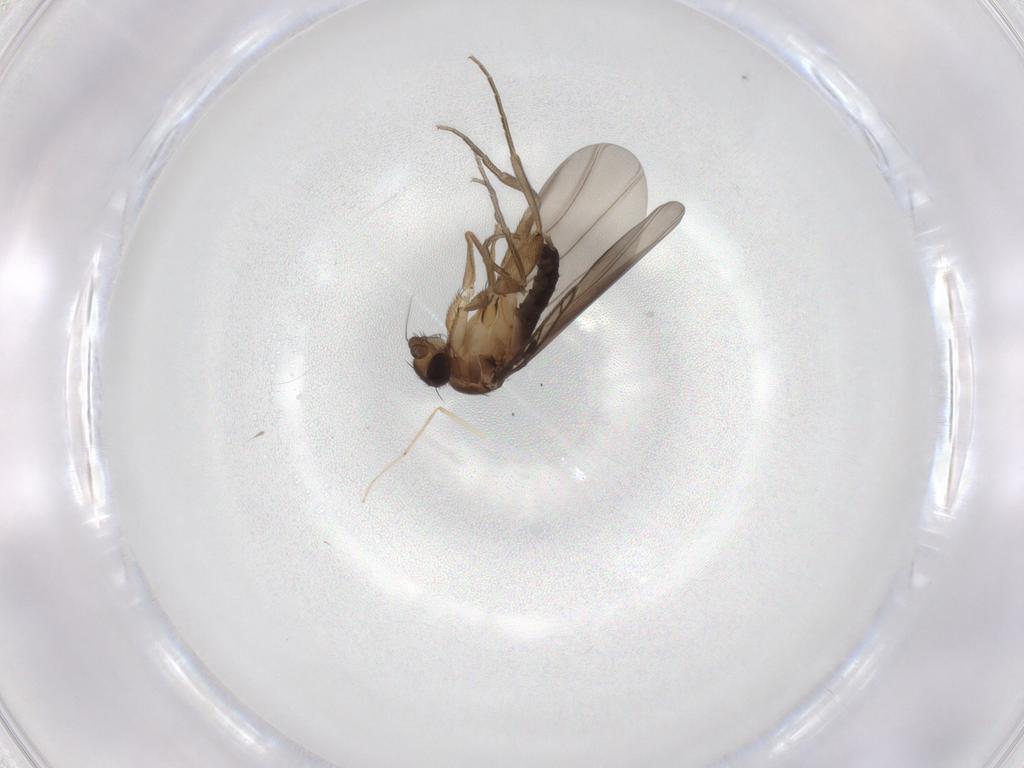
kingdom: Animalia
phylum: Arthropoda
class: Insecta
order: Diptera
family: Phoridae
